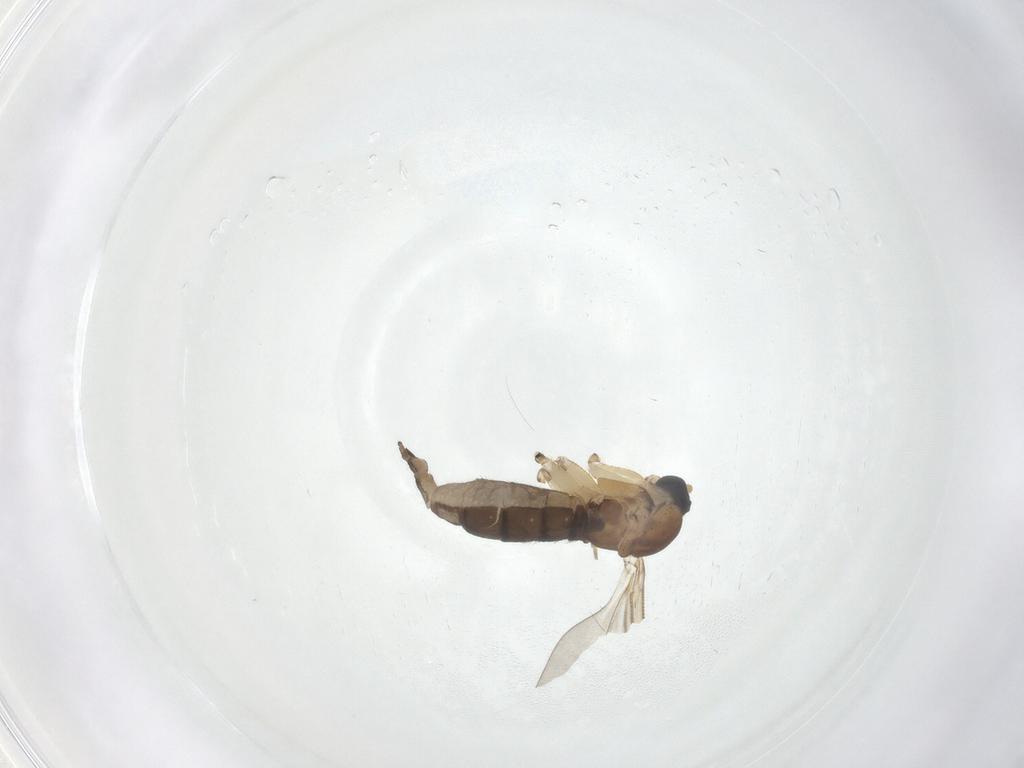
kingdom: Animalia
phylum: Arthropoda
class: Insecta
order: Diptera
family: Sciaridae
